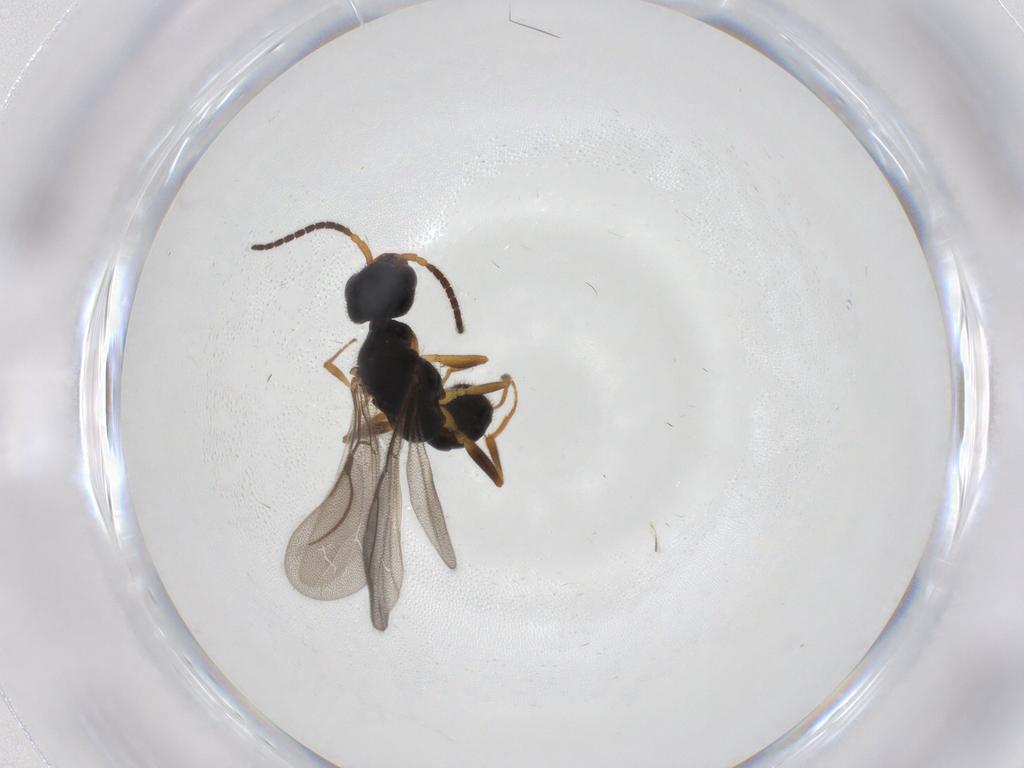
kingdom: Animalia
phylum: Arthropoda
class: Insecta
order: Hymenoptera
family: Bethylidae
